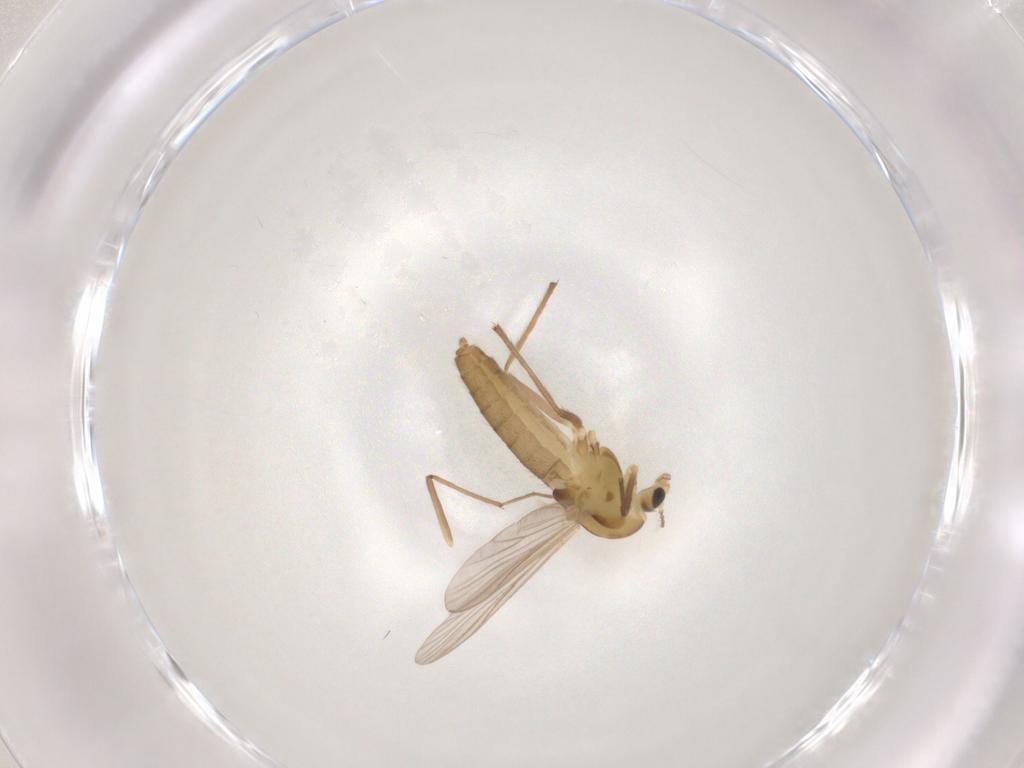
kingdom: Animalia
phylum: Arthropoda
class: Insecta
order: Diptera
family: Chironomidae
